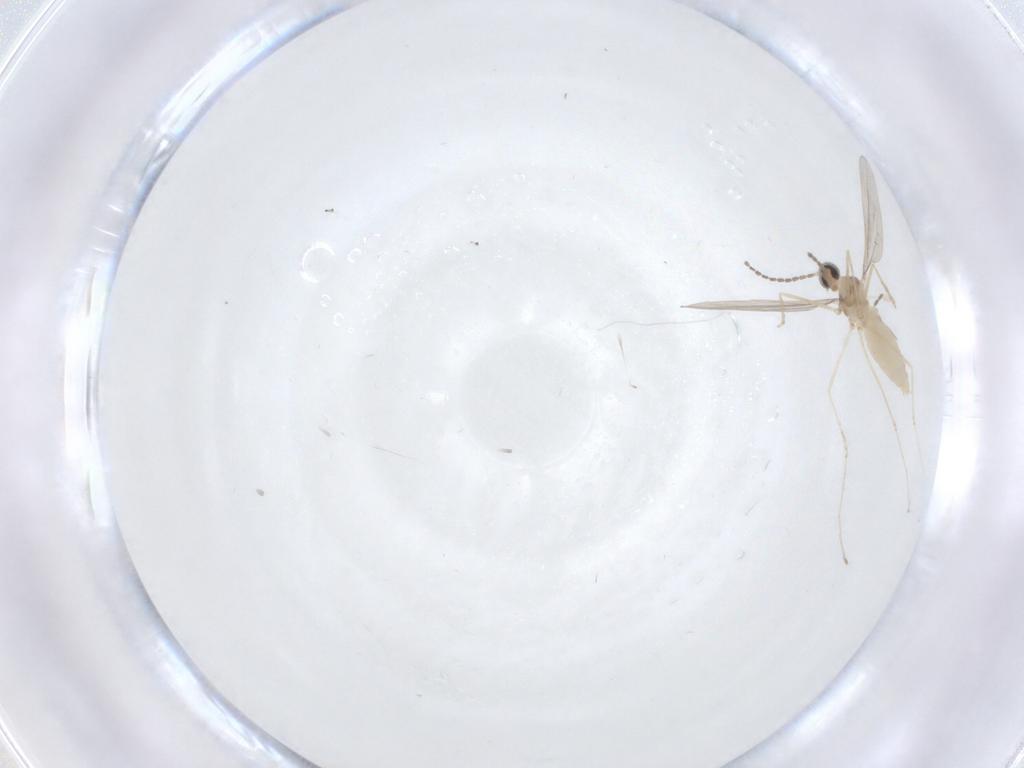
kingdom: Animalia
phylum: Arthropoda
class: Insecta
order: Diptera
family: Cecidomyiidae
